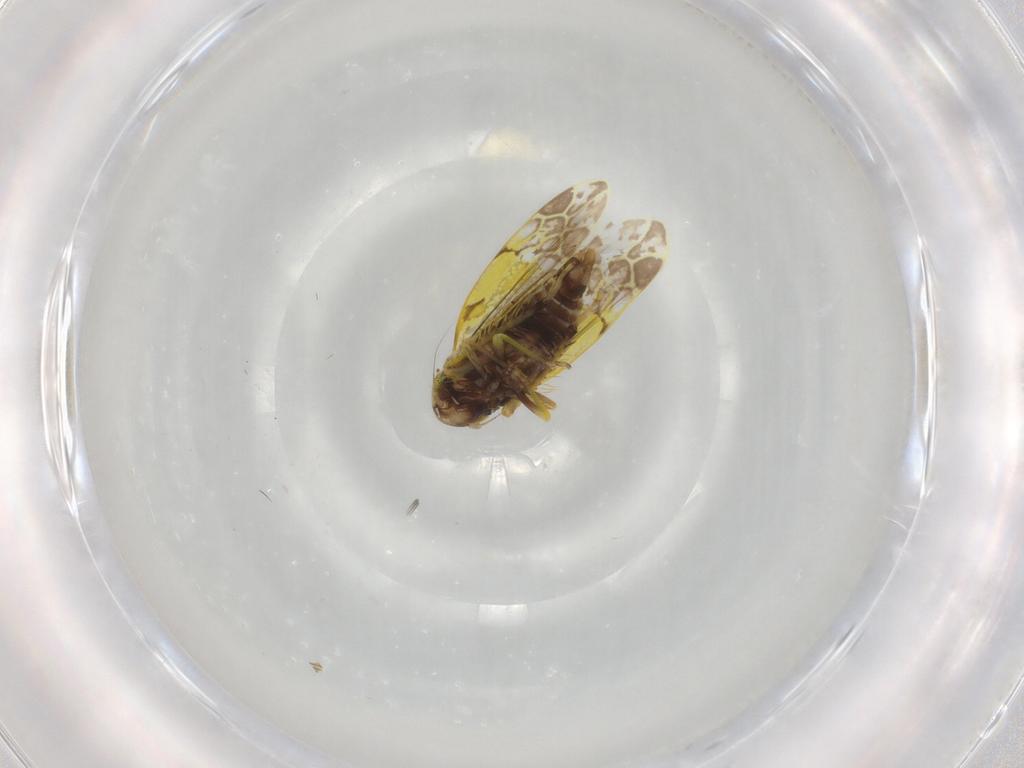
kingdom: Animalia
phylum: Arthropoda
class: Insecta
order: Hemiptera
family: Cicadellidae
